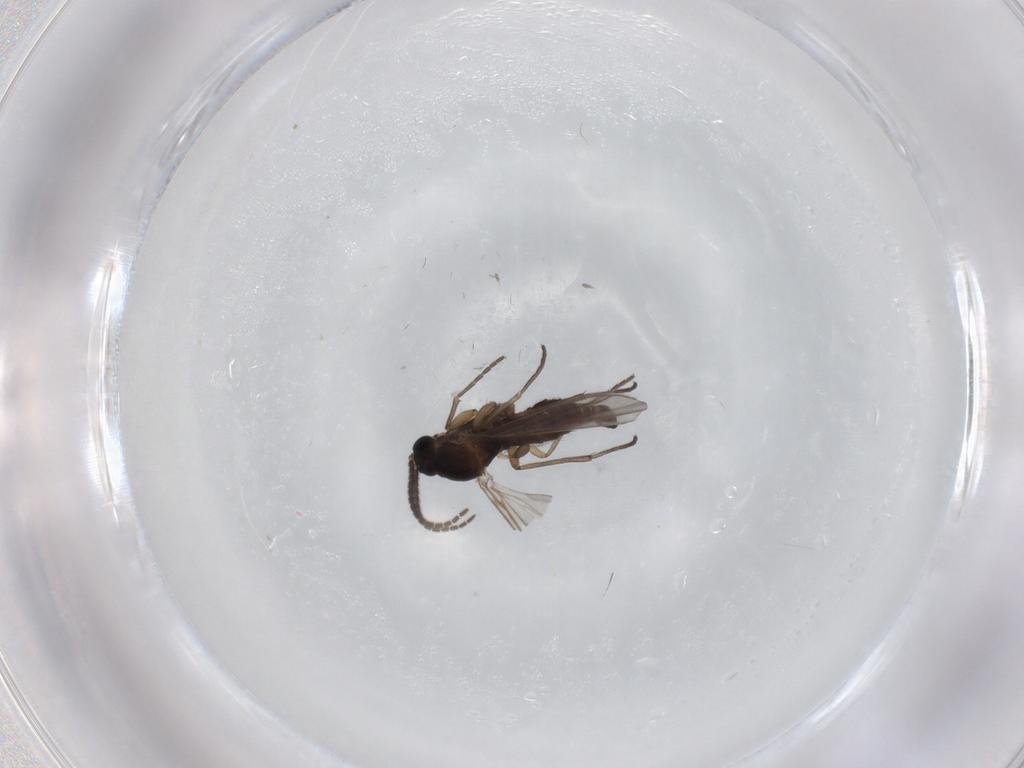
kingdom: Animalia
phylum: Arthropoda
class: Insecta
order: Diptera
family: Sciaridae
